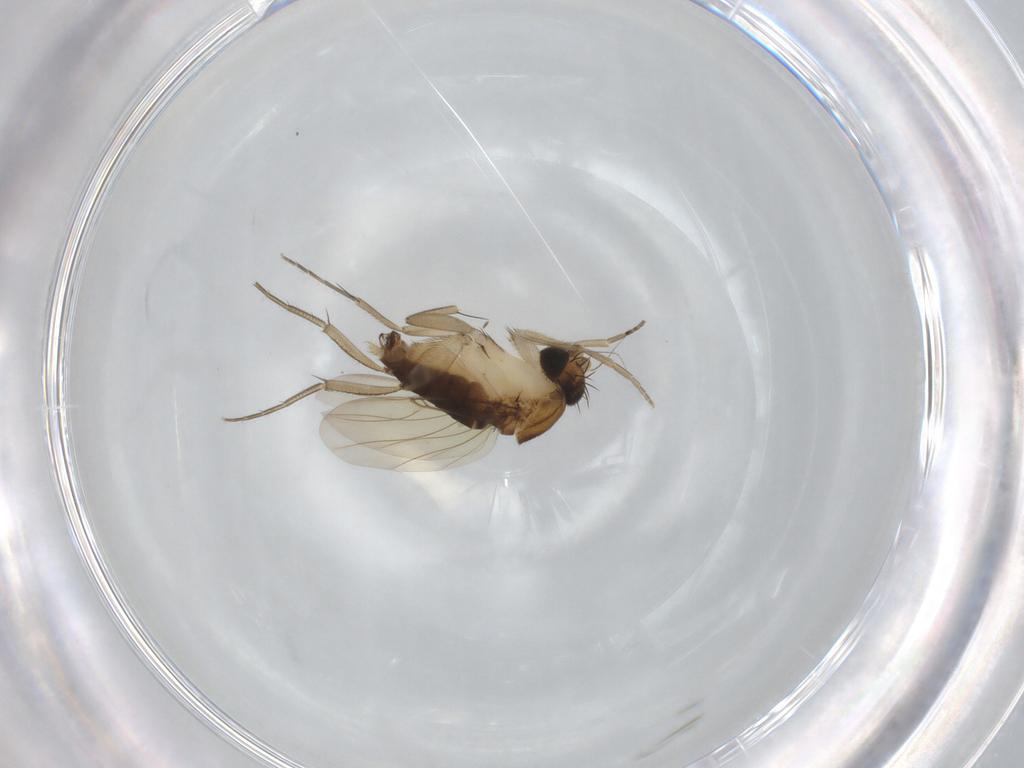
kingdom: Animalia
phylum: Arthropoda
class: Insecta
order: Diptera
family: Phoridae
